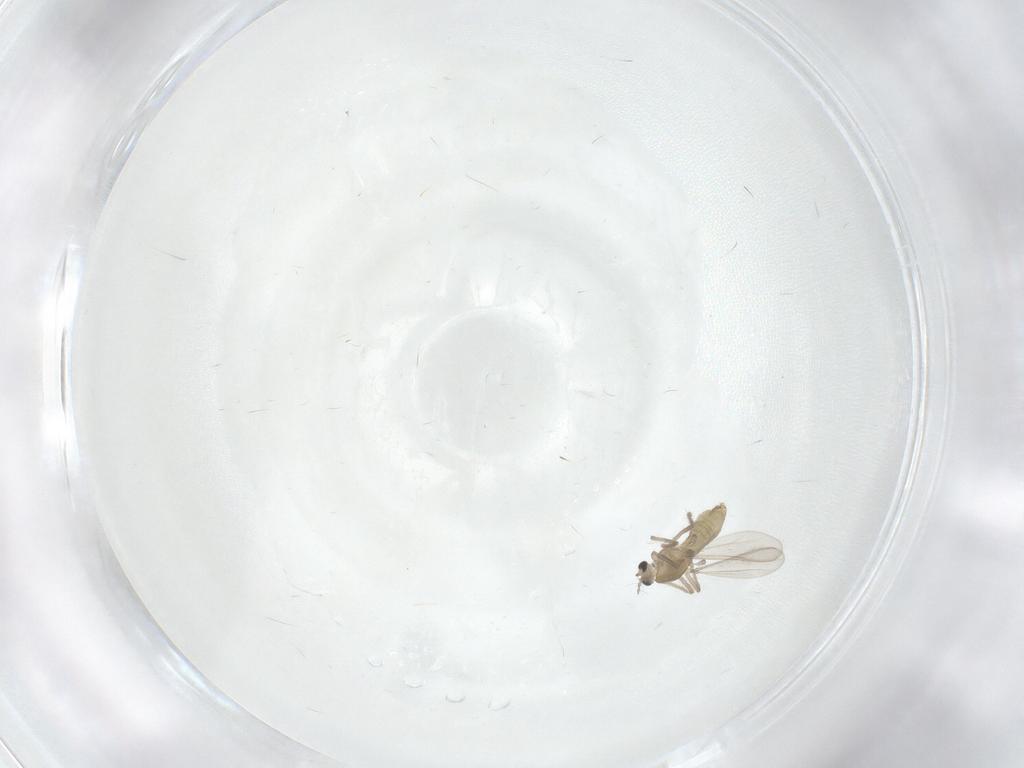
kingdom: Animalia
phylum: Arthropoda
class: Insecta
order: Diptera
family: Chironomidae
